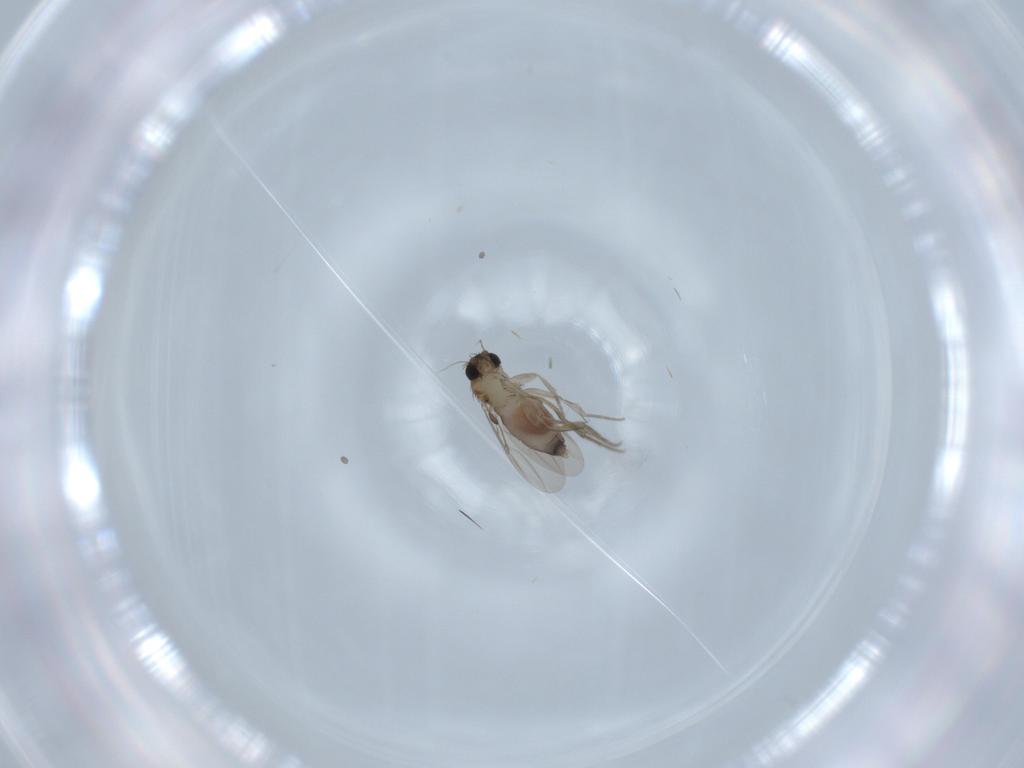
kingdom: Animalia
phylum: Arthropoda
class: Insecta
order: Diptera
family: Phoridae
